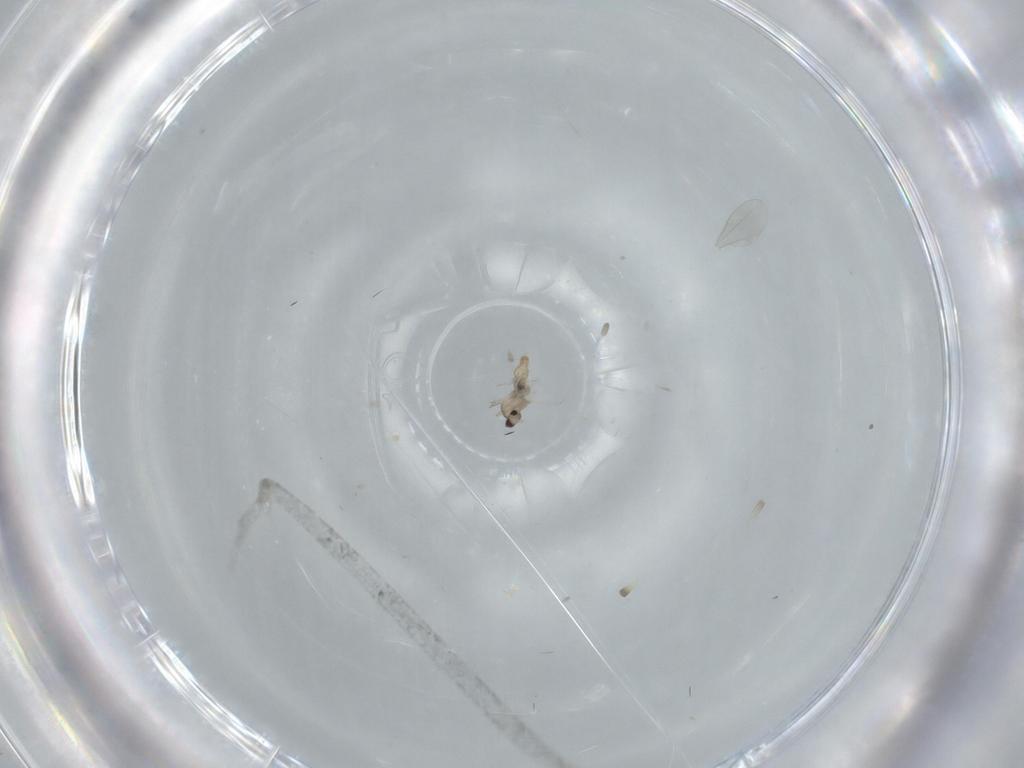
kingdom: Animalia
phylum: Arthropoda
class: Insecta
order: Diptera
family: Cecidomyiidae
